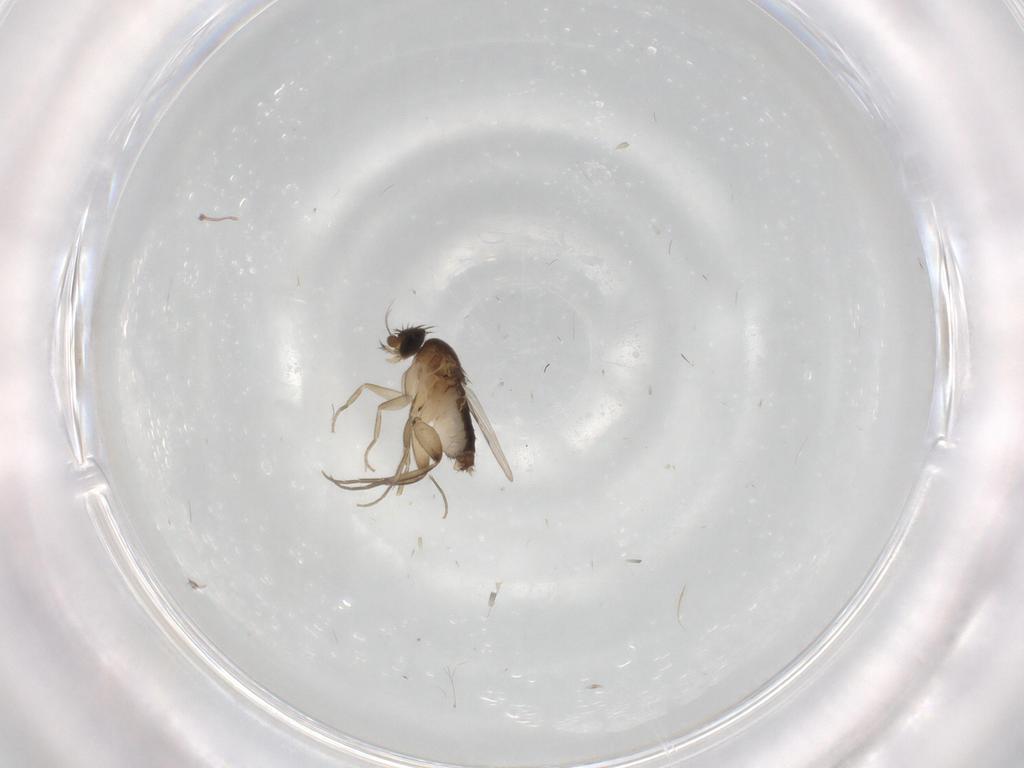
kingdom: Animalia
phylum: Arthropoda
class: Insecta
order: Diptera
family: Phoridae
